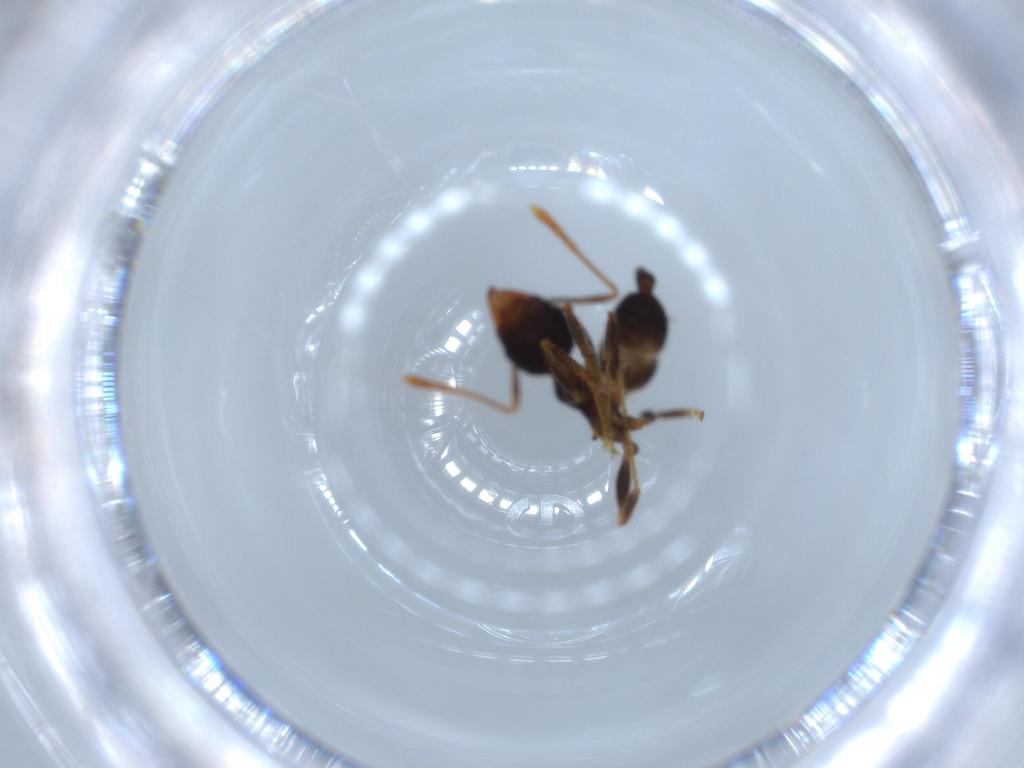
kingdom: Animalia
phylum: Arthropoda
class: Insecta
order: Hymenoptera
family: Formicidae
